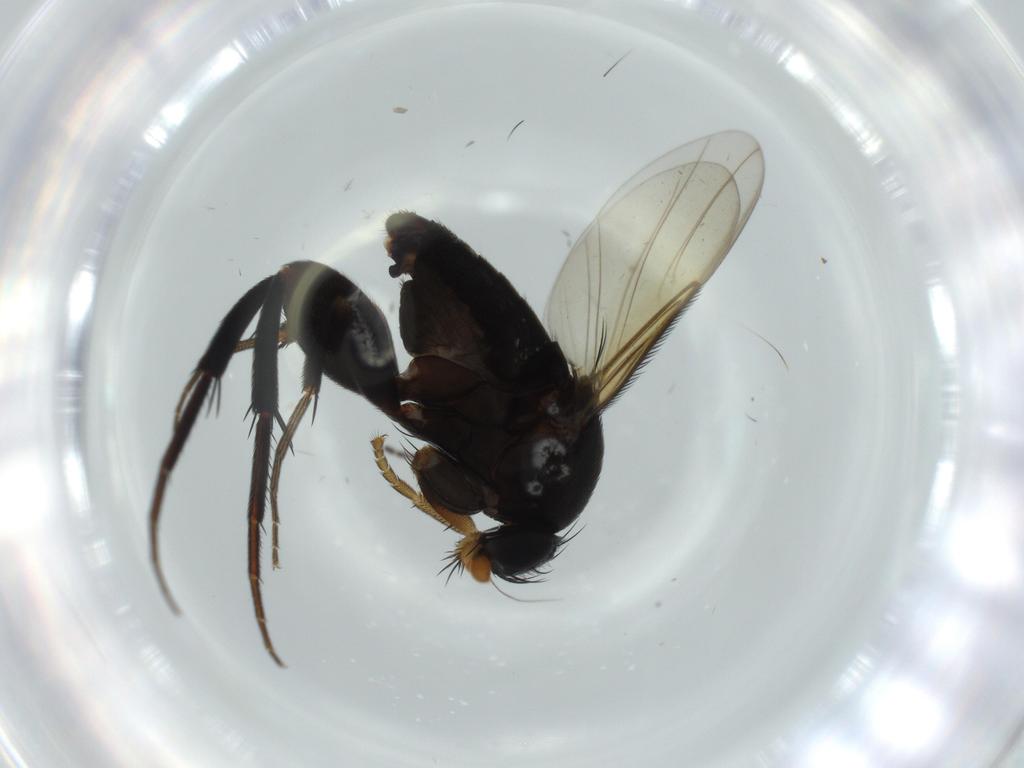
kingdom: Animalia
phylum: Arthropoda
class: Insecta
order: Diptera
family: Phoridae
